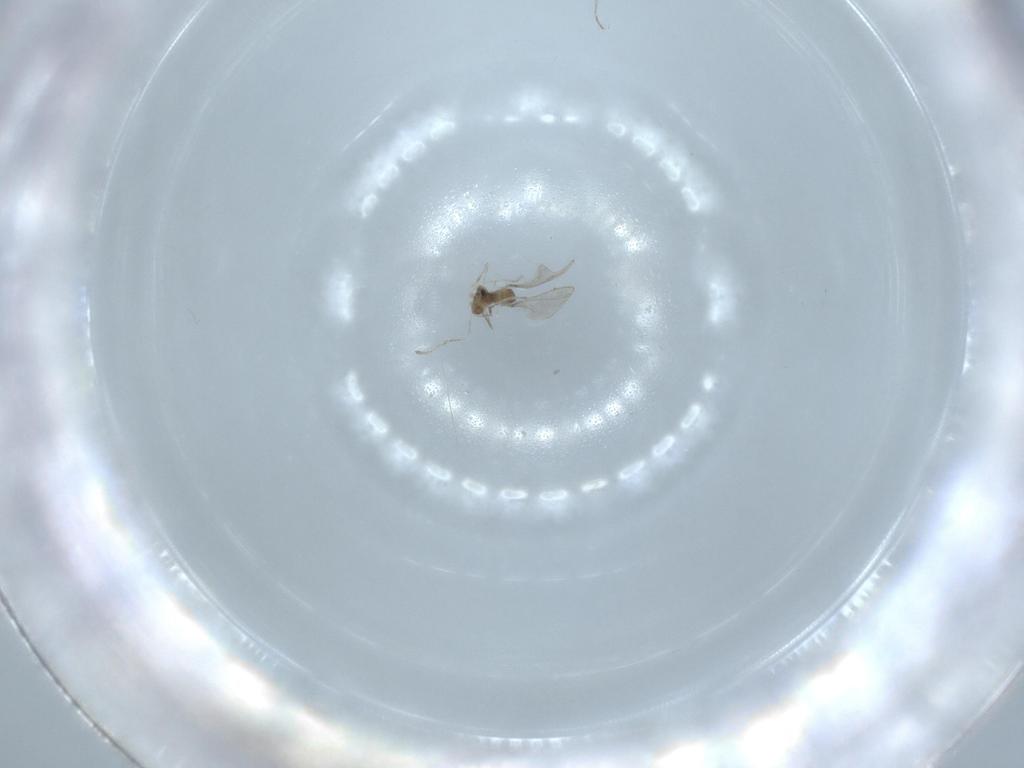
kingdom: Animalia
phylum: Arthropoda
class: Insecta
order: Diptera
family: Cecidomyiidae
